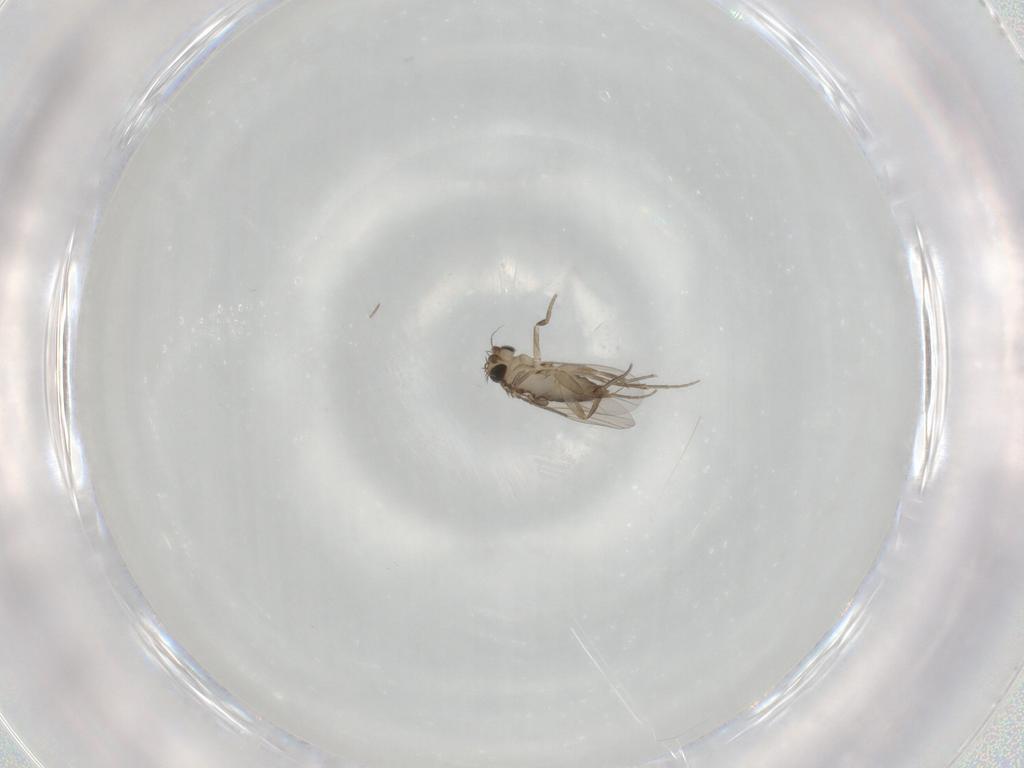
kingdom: Animalia
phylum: Arthropoda
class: Insecta
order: Diptera
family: Phoridae
